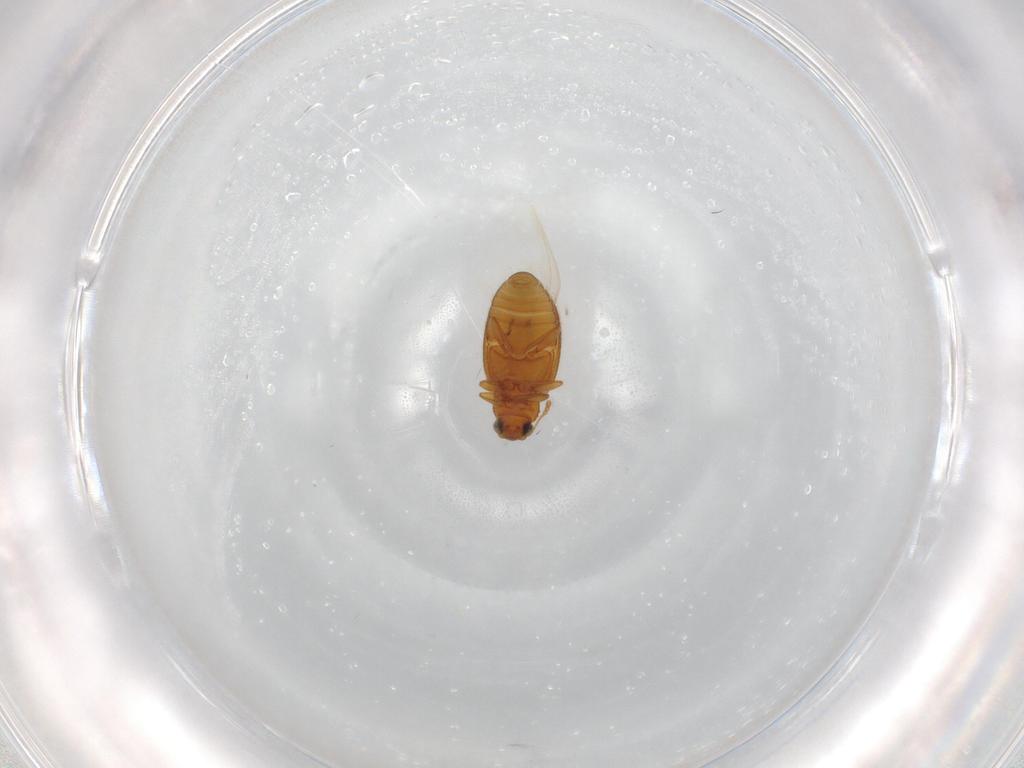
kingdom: Animalia
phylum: Arthropoda
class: Insecta
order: Coleoptera
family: Latridiidae
